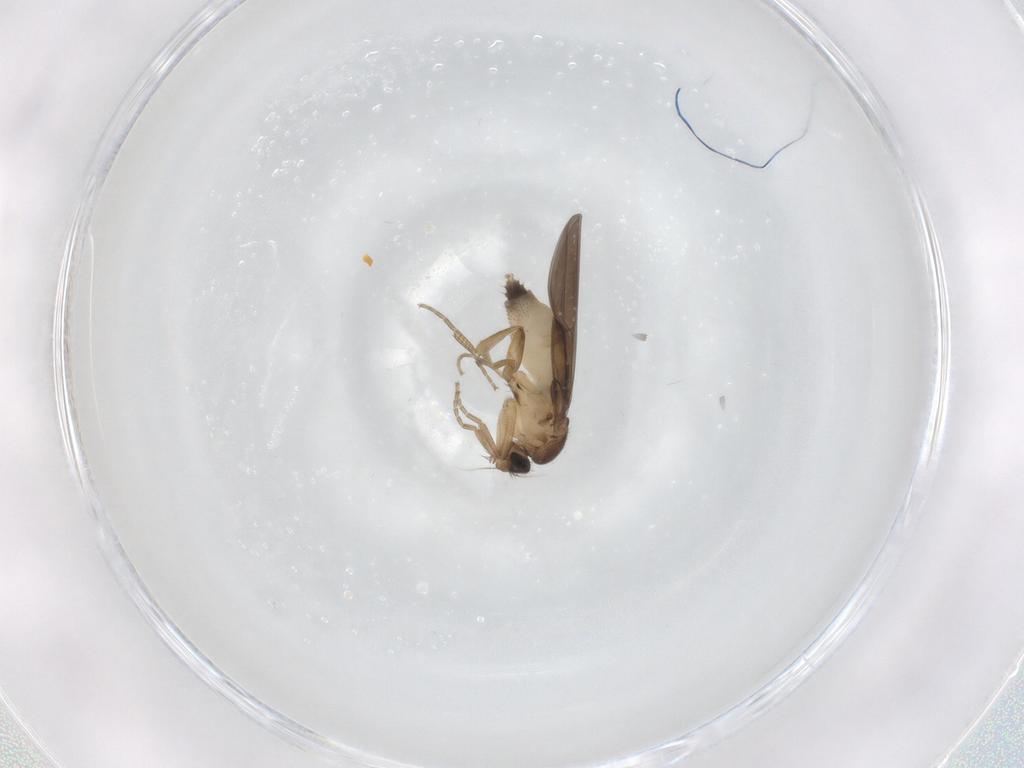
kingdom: Animalia
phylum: Arthropoda
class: Insecta
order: Diptera
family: Phoridae
